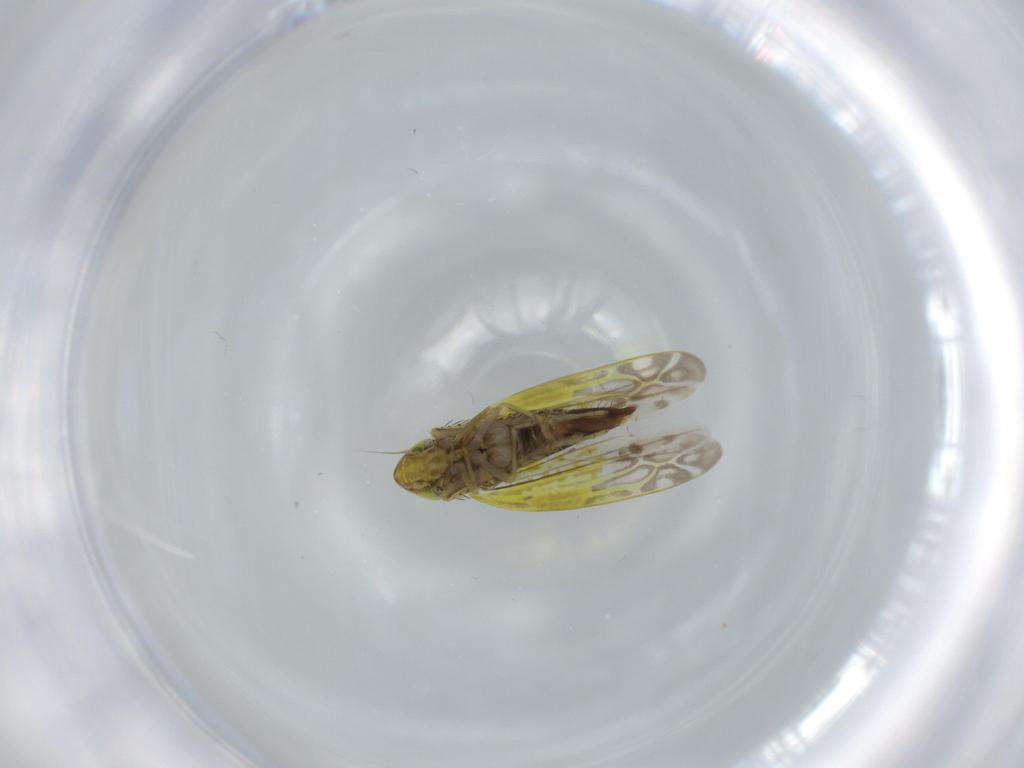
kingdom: Animalia
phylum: Arthropoda
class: Insecta
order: Hemiptera
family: Cicadellidae
